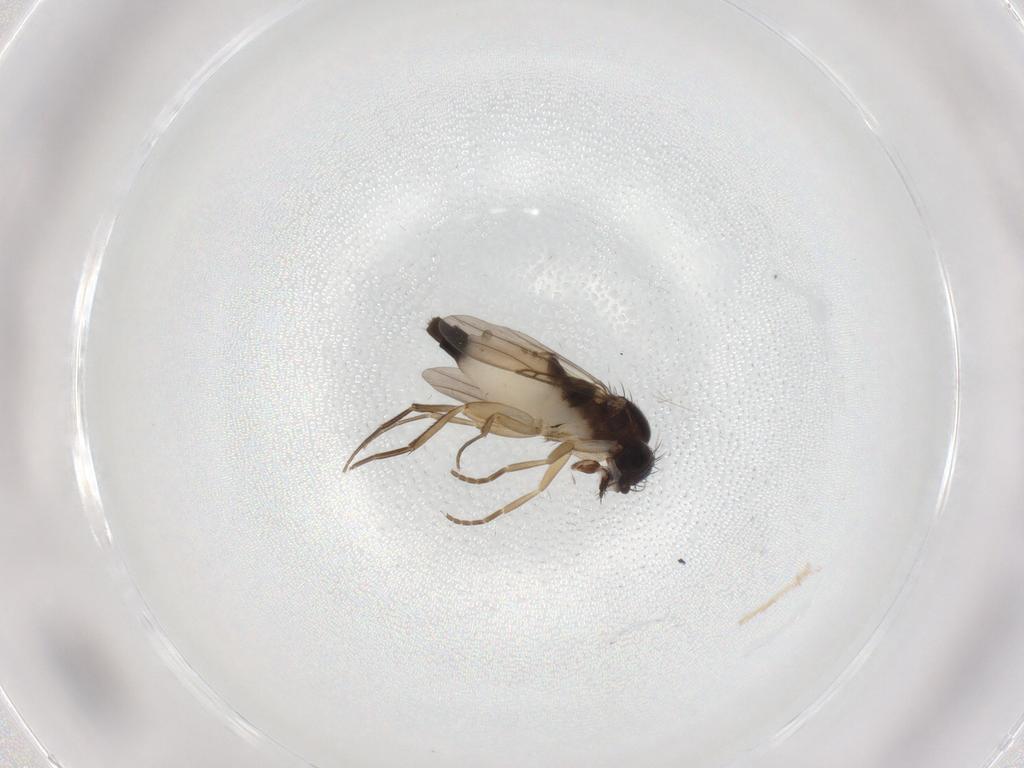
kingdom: Animalia
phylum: Arthropoda
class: Insecta
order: Diptera
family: Phoridae
